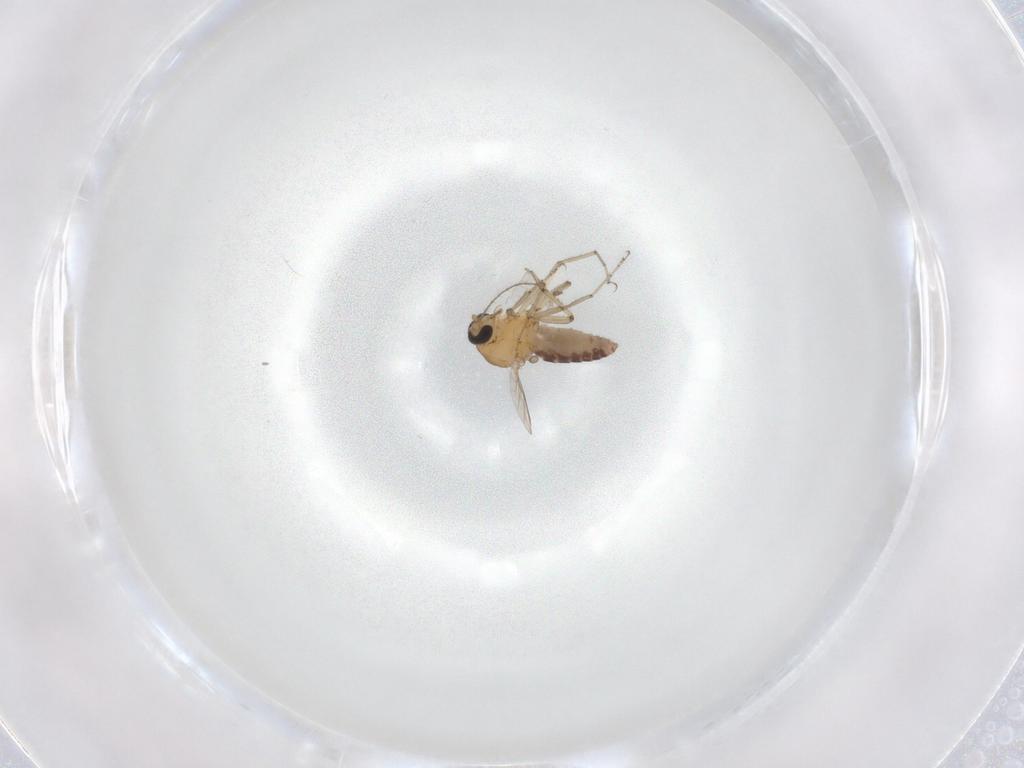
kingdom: Animalia
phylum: Arthropoda
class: Insecta
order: Diptera
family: Ceratopogonidae
